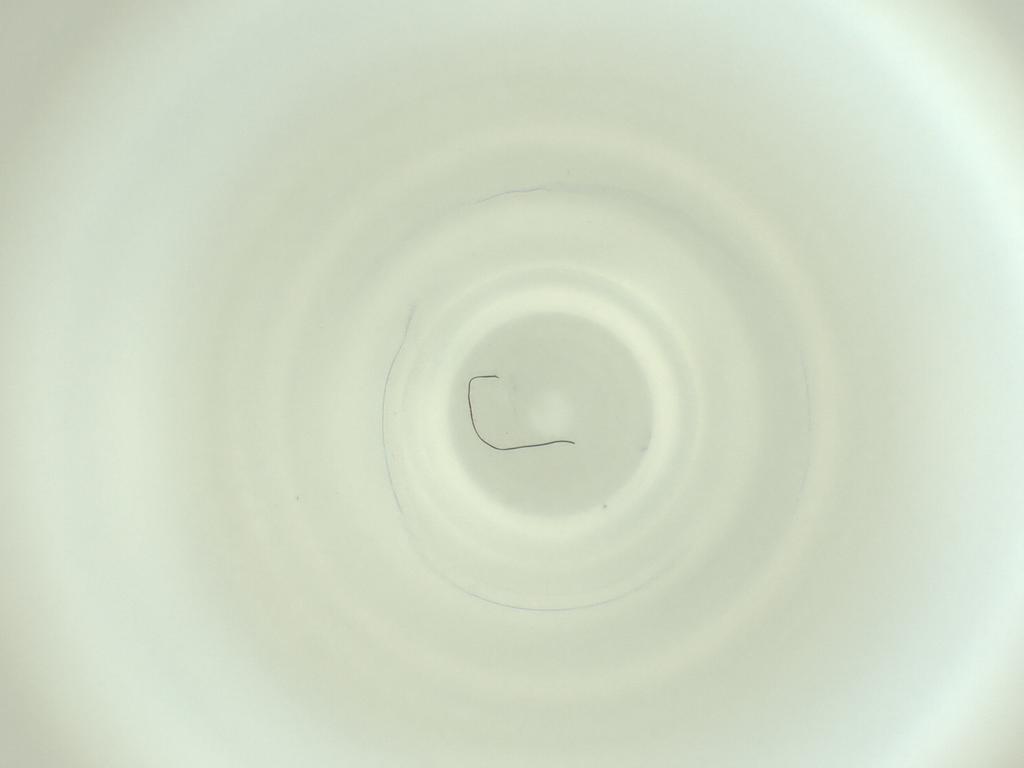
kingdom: Animalia
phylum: Arthropoda
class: Insecta
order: Diptera
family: Cecidomyiidae
